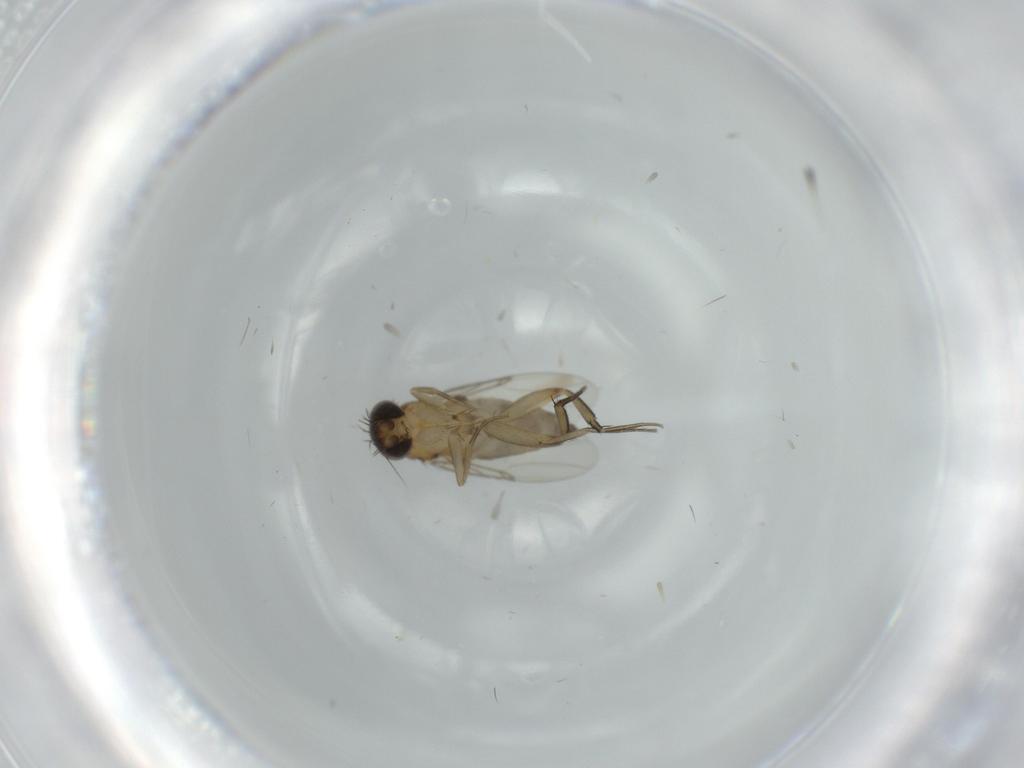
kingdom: Animalia
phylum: Arthropoda
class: Insecta
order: Diptera
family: Phoridae
